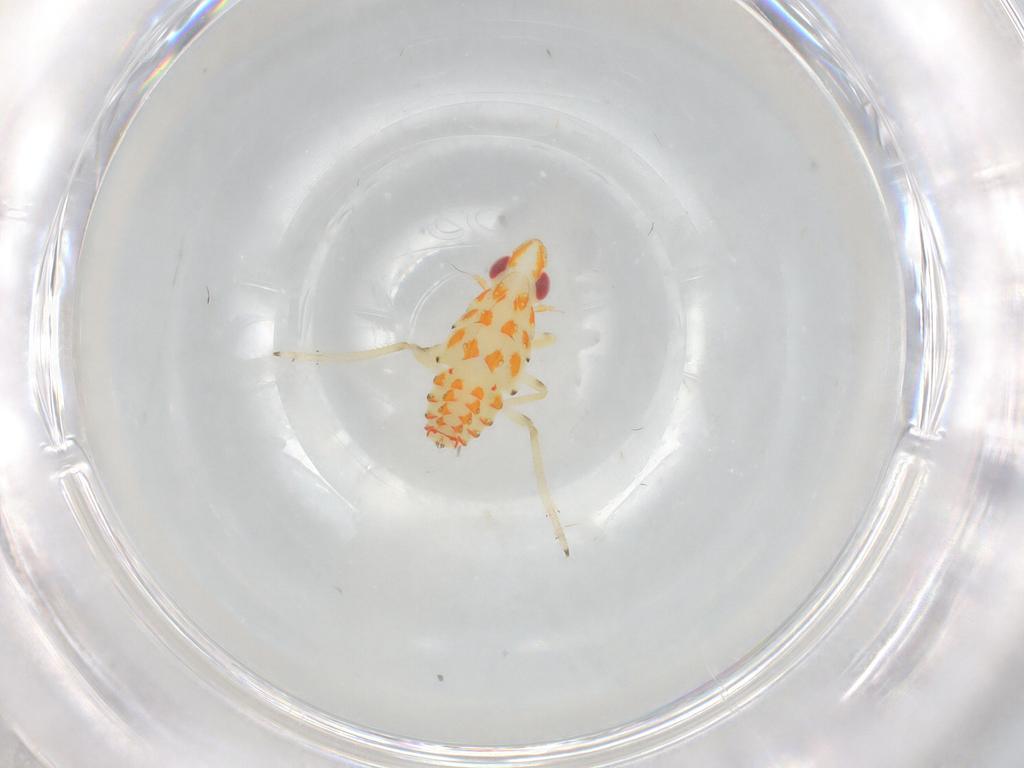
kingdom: Animalia
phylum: Arthropoda
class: Insecta
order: Hemiptera
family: Tropiduchidae
